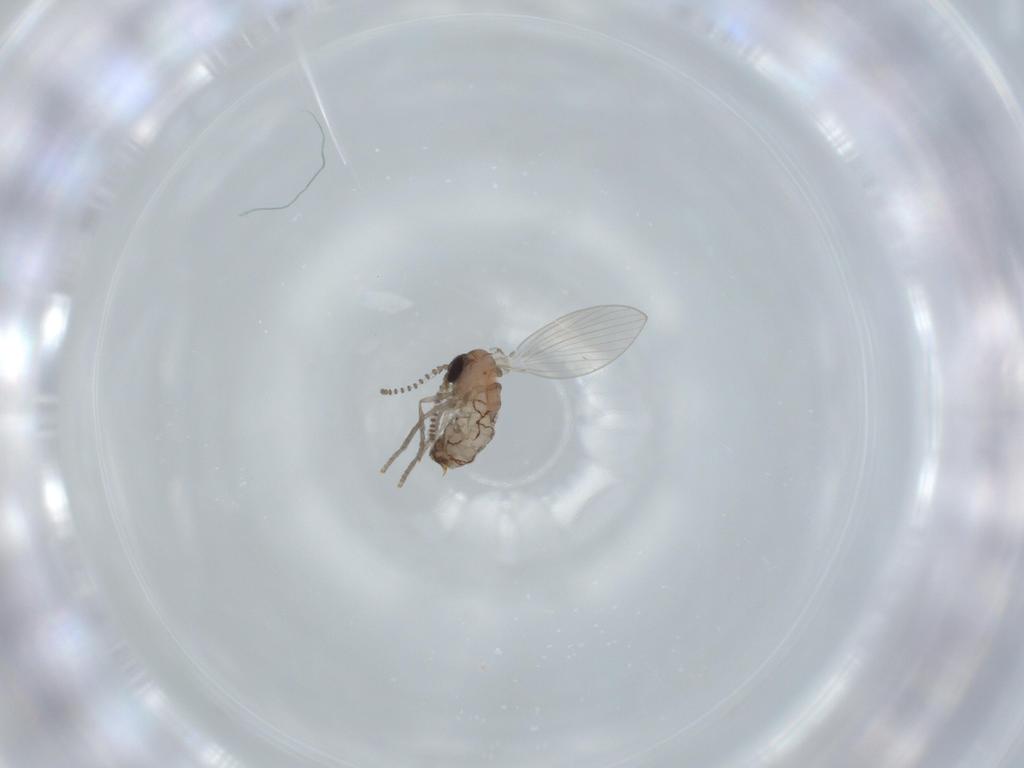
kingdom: Animalia
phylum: Arthropoda
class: Insecta
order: Diptera
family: Psychodidae
